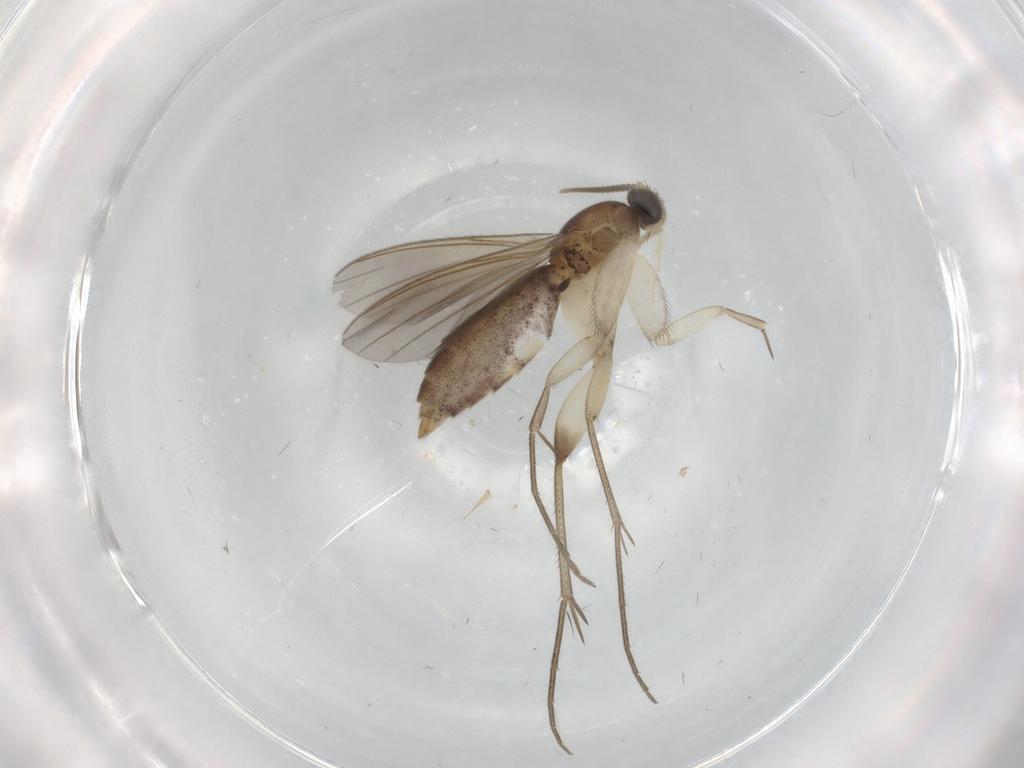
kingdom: Animalia
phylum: Arthropoda
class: Insecta
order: Diptera
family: Mycetophilidae
